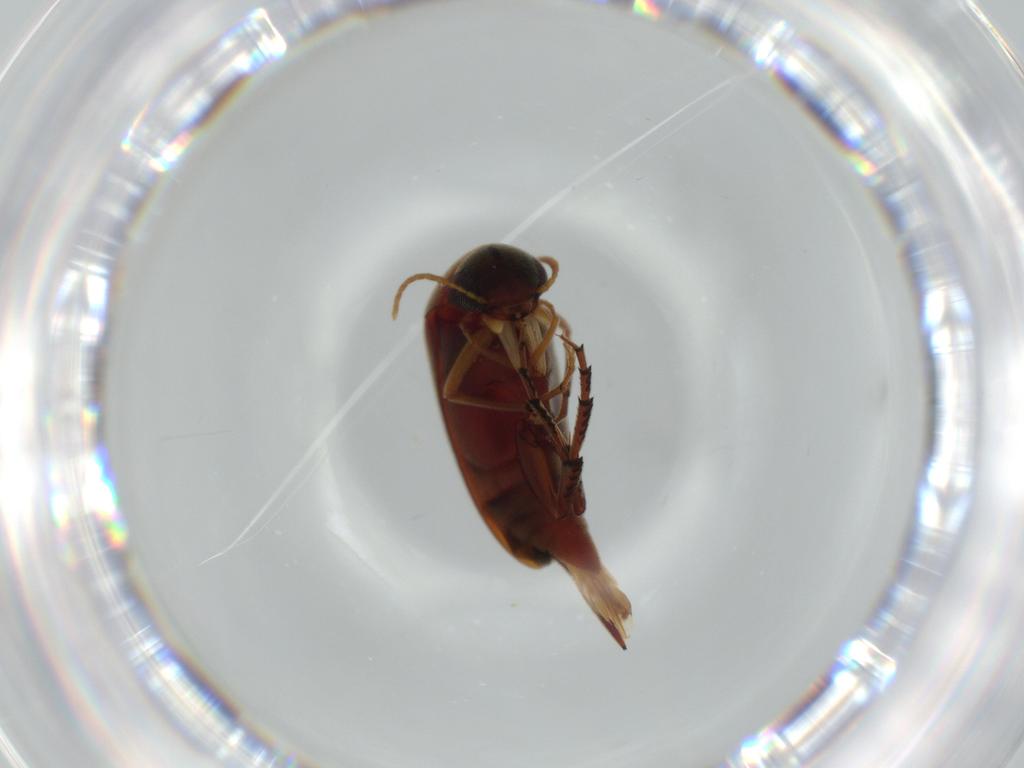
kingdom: Animalia
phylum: Arthropoda
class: Insecta
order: Coleoptera
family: Mordellidae
